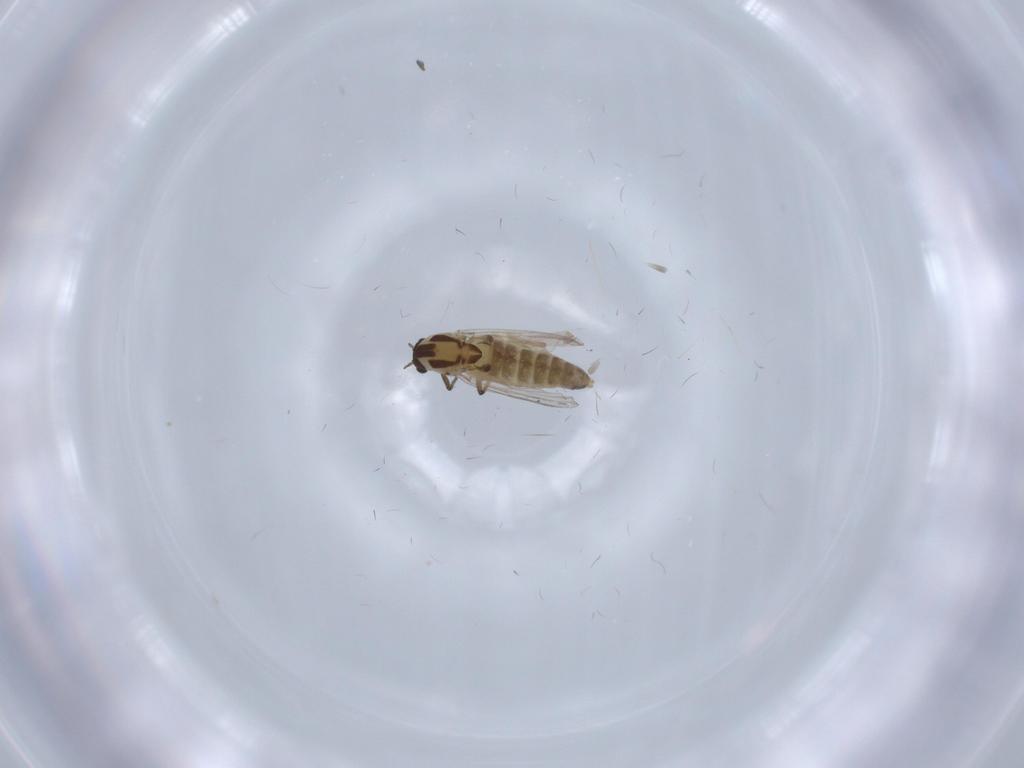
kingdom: Animalia
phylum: Arthropoda
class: Insecta
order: Diptera
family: Chironomidae
